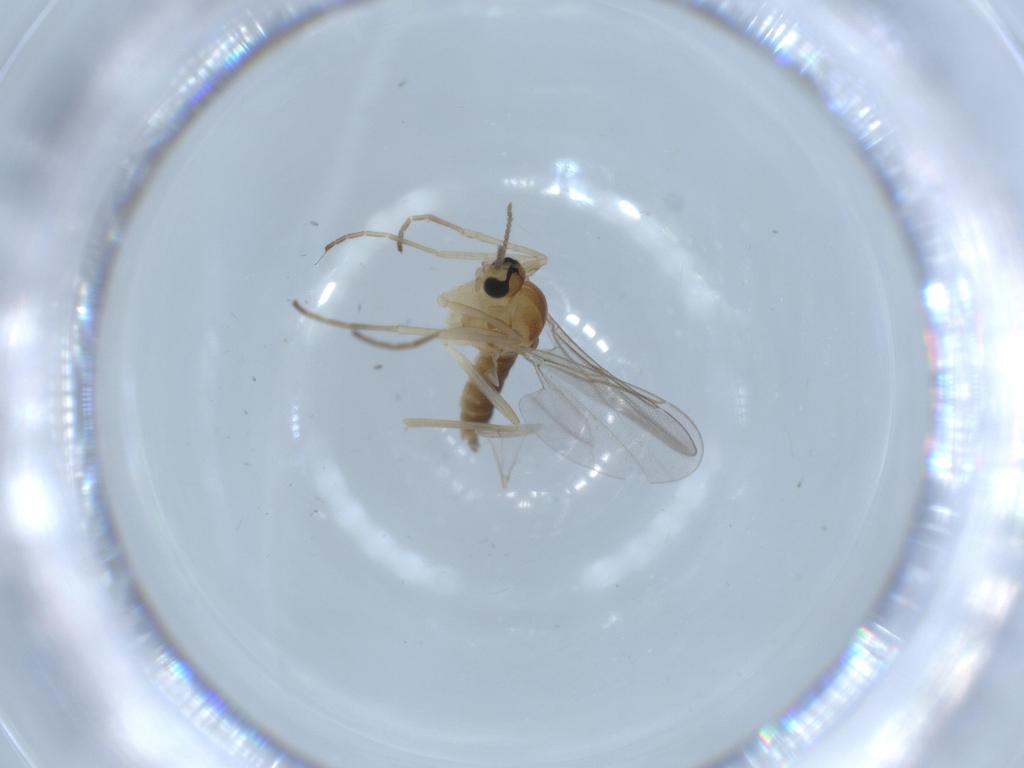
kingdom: Animalia
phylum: Arthropoda
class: Insecta
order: Diptera
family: Cecidomyiidae
